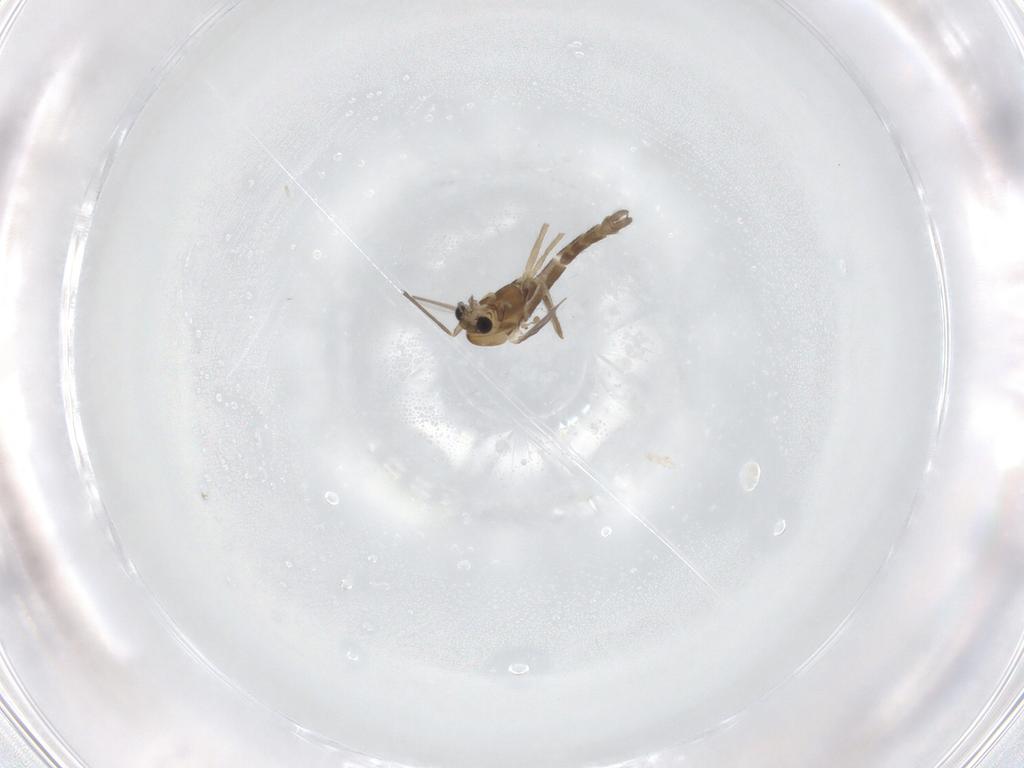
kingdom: Animalia
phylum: Arthropoda
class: Insecta
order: Diptera
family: Chironomidae
